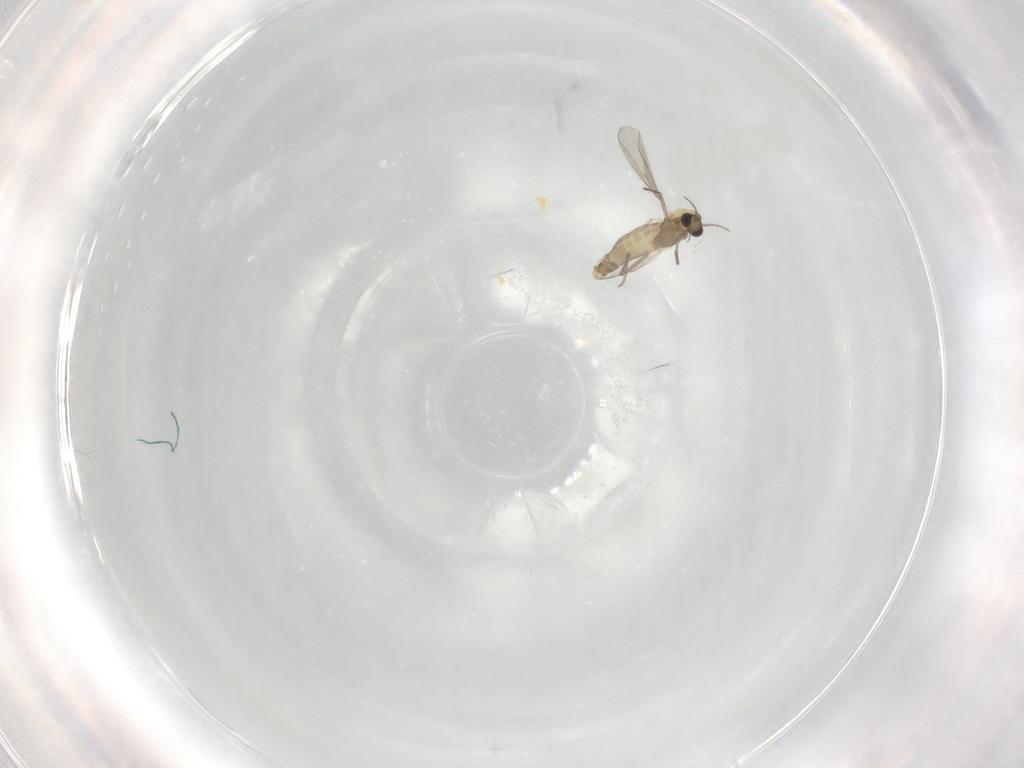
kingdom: Animalia
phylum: Arthropoda
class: Insecta
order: Diptera
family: Chironomidae
